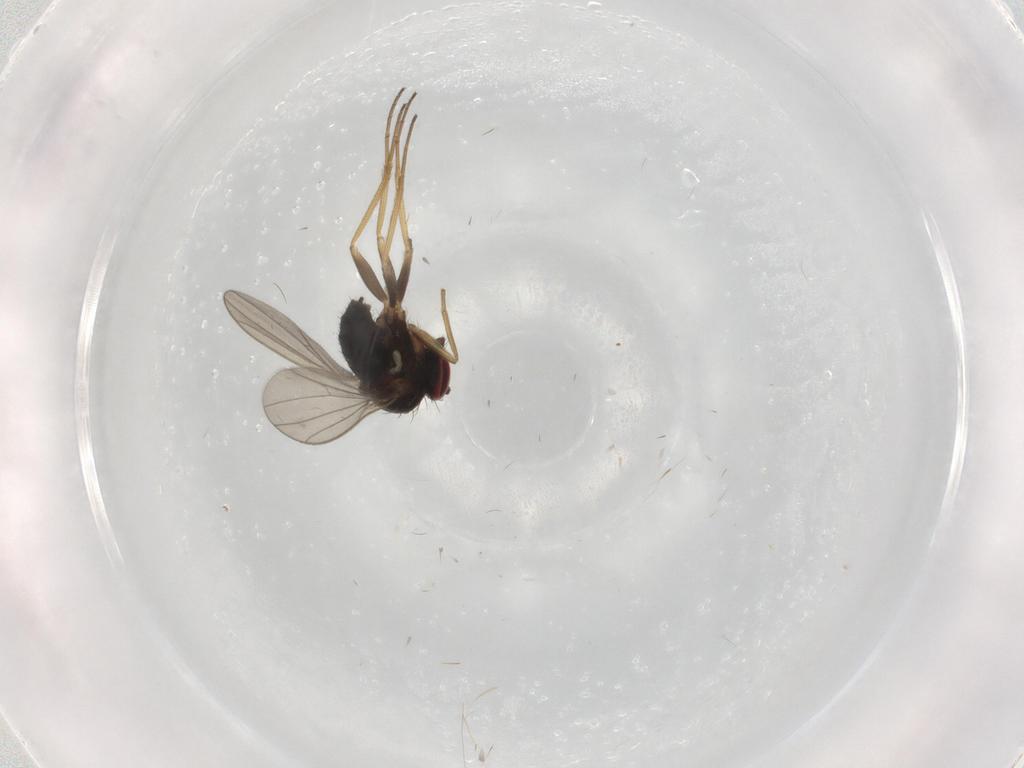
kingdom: Animalia
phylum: Arthropoda
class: Insecta
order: Diptera
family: Dolichopodidae
